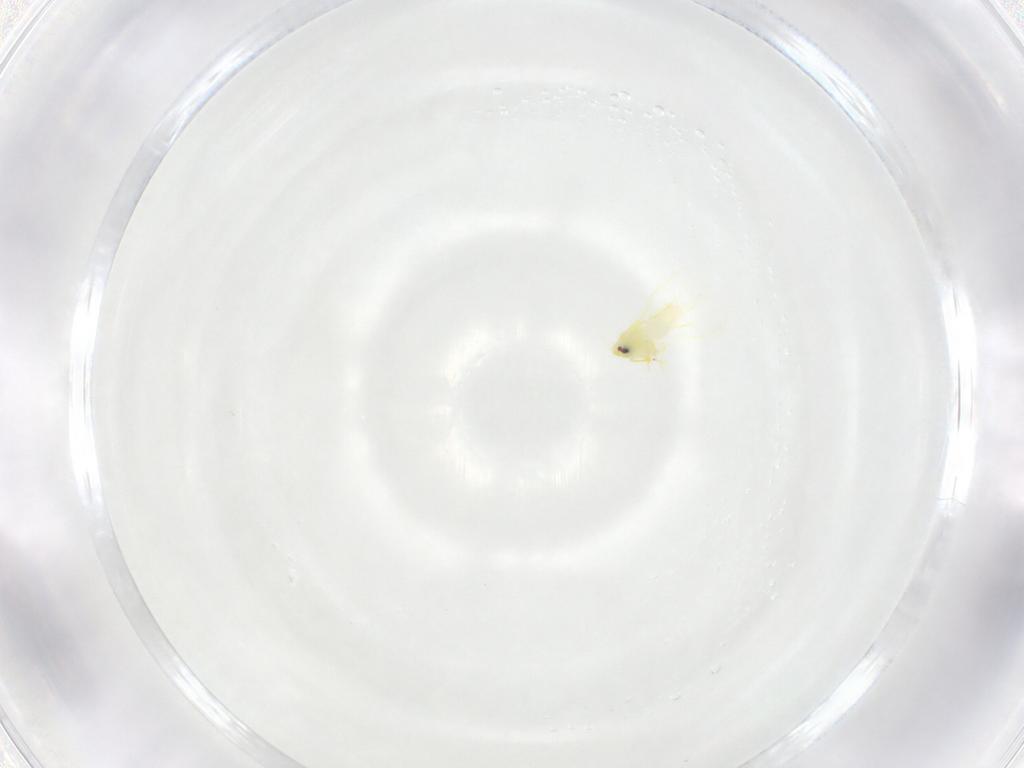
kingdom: Animalia
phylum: Arthropoda
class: Insecta
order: Hemiptera
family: Aleyrodidae
